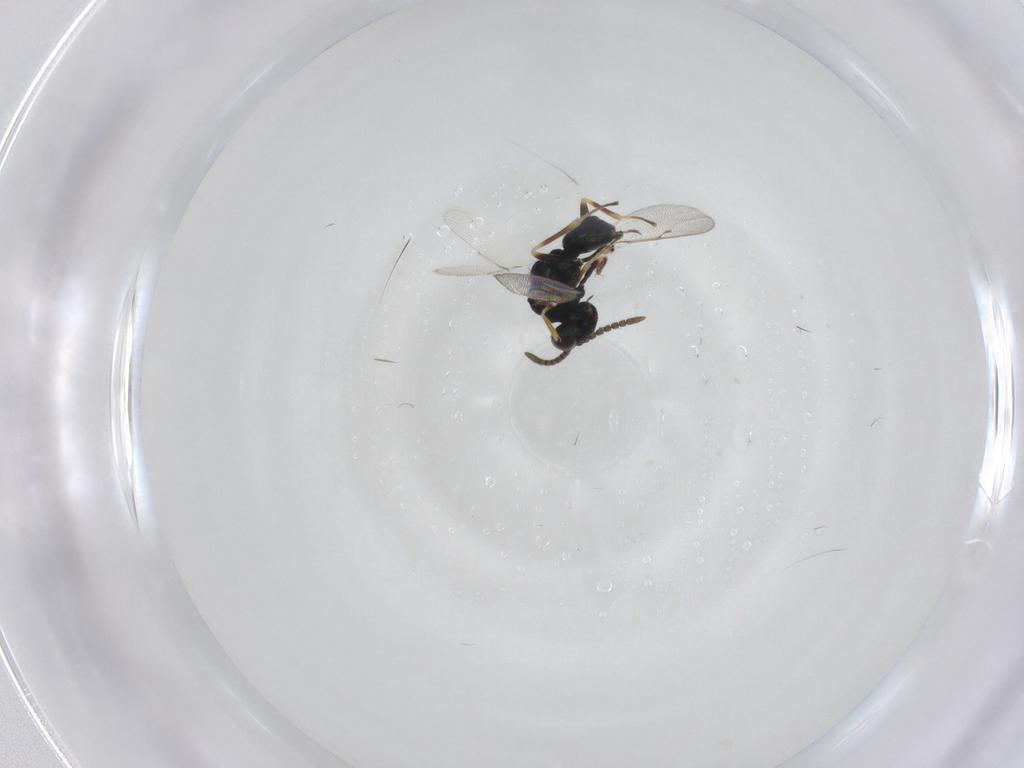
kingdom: Animalia
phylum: Arthropoda
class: Insecta
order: Hymenoptera
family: Pteromalidae
